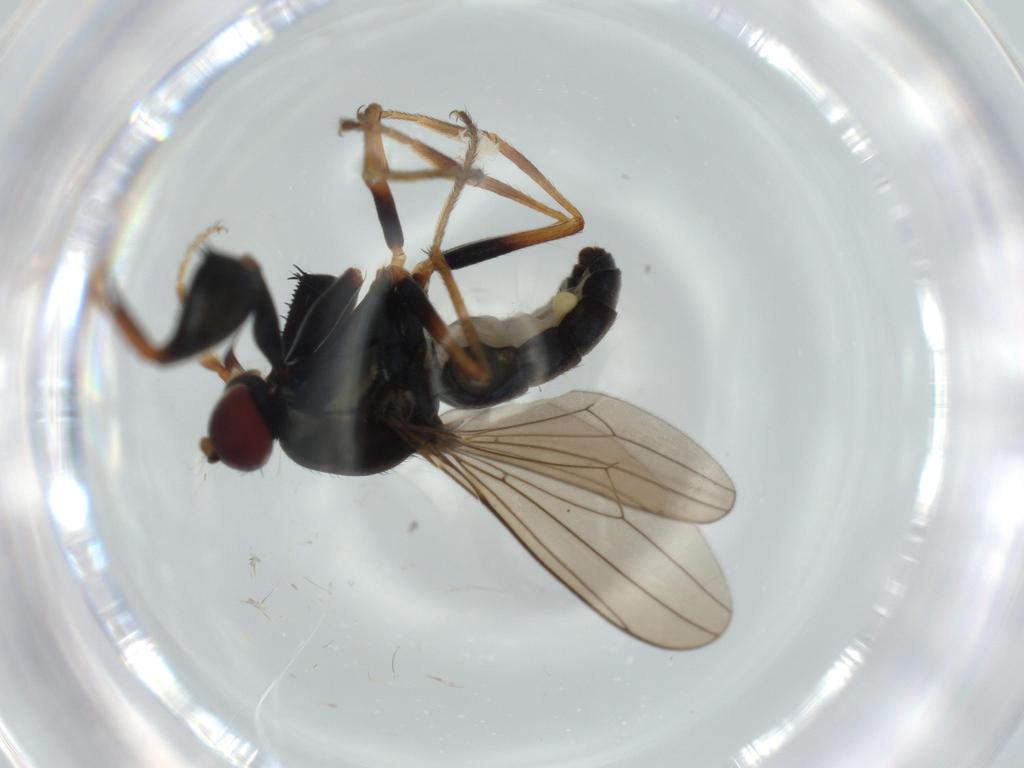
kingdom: Animalia
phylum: Arthropoda
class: Insecta
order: Diptera
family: Ephydridae
